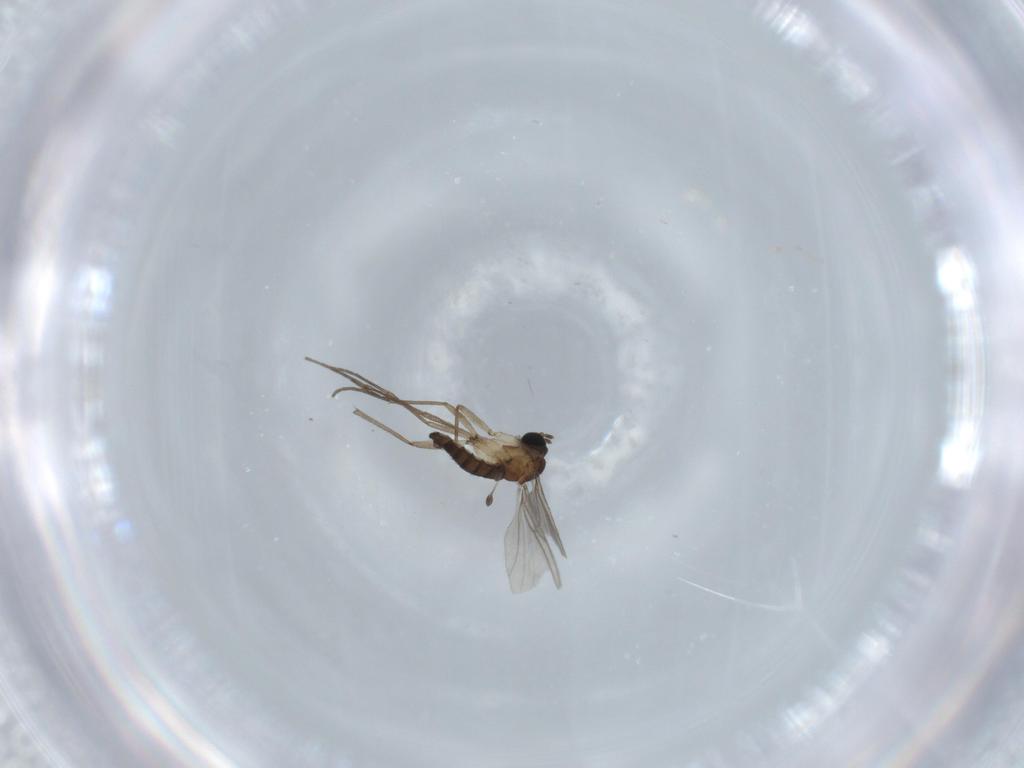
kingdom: Animalia
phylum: Arthropoda
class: Insecta
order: Diptera
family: Sciaridae
